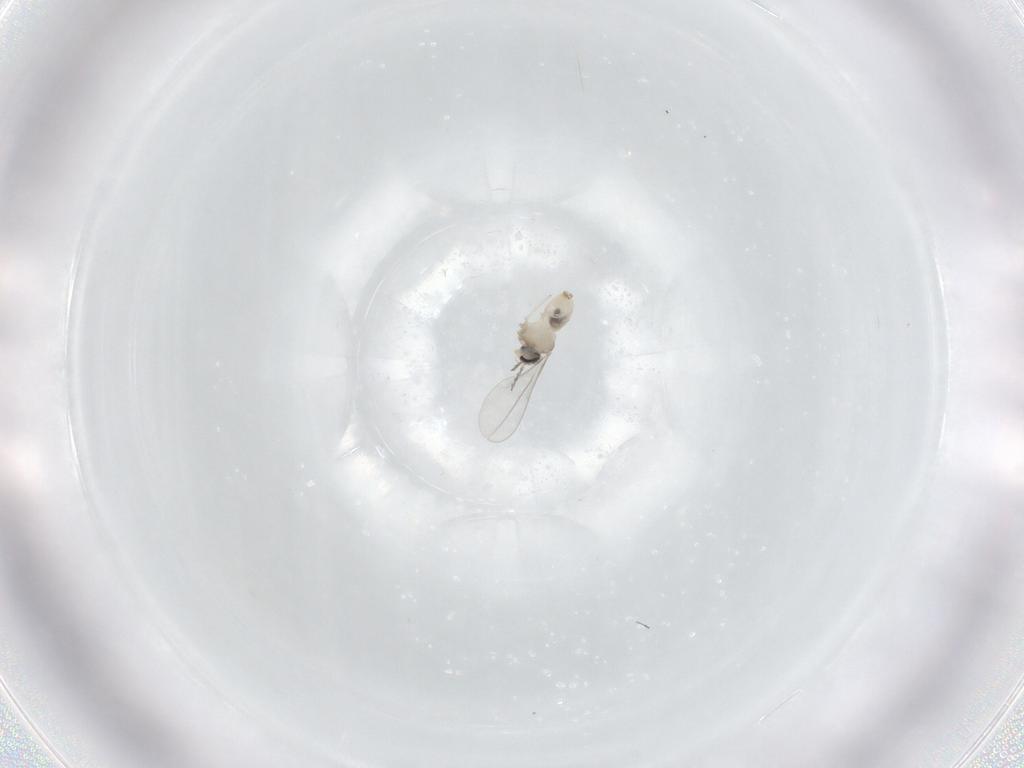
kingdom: Animalia
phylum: Arthropoda
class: Insecta
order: Diptera
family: Cecidomyiidae
